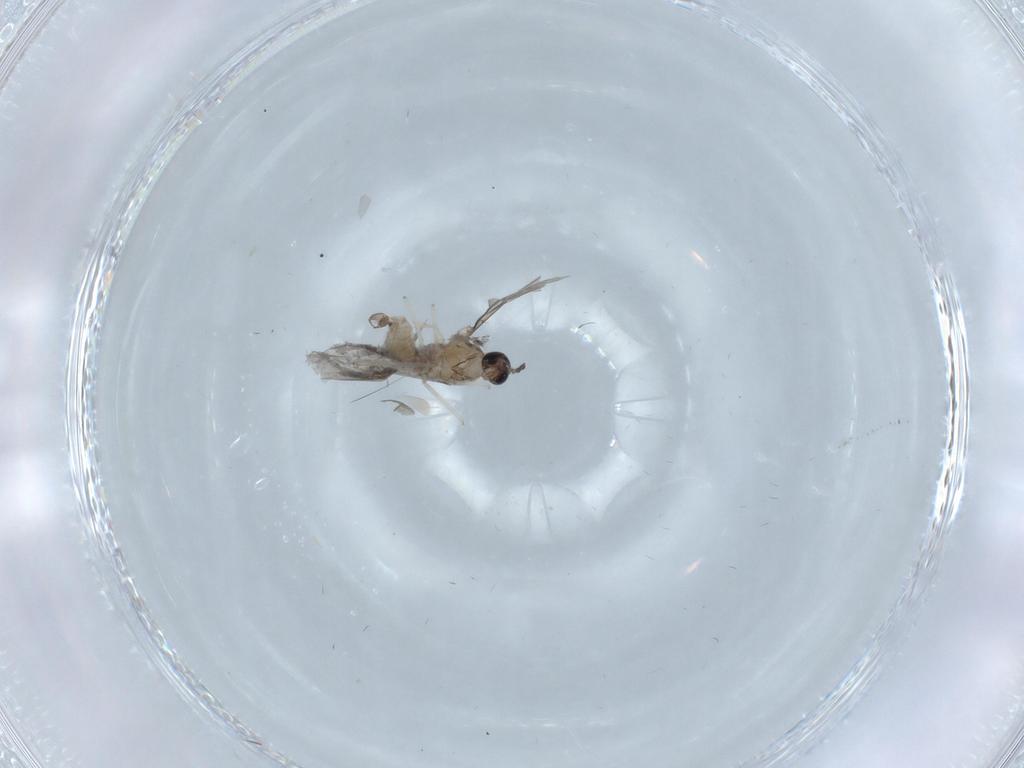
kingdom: Animalia
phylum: Arthropoda
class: Insecta
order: Diptera
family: Cecidomyiidae
